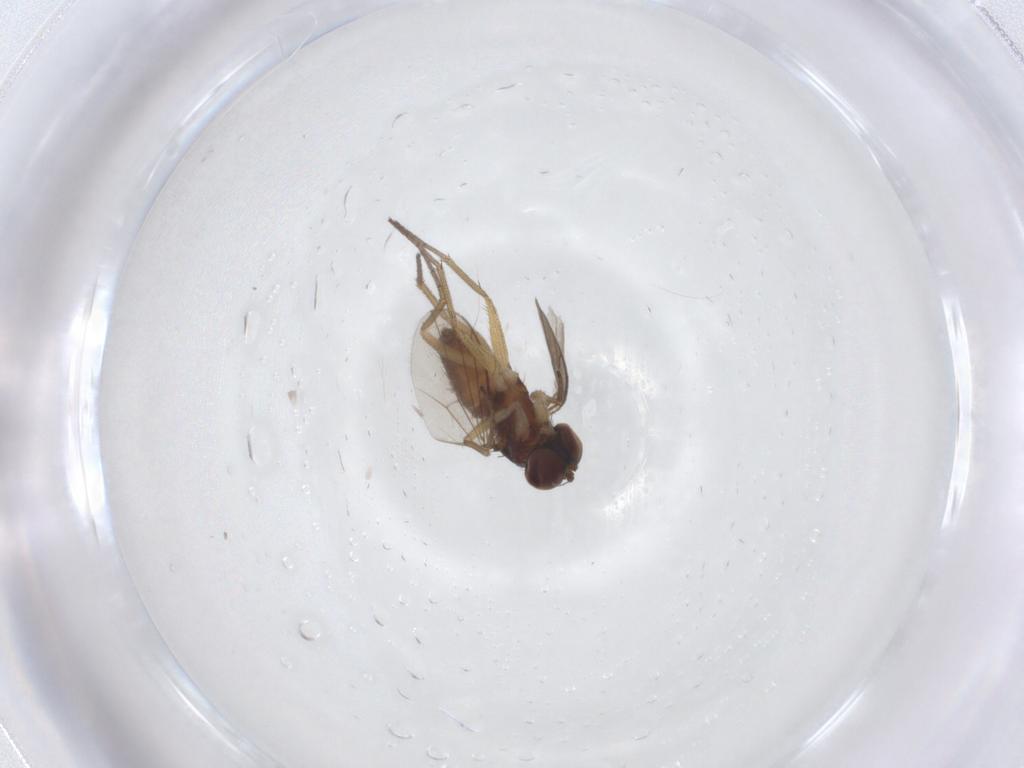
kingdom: Animalia
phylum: Arthropoda
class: Insecta
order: Diptera
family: Dolichopodidae
